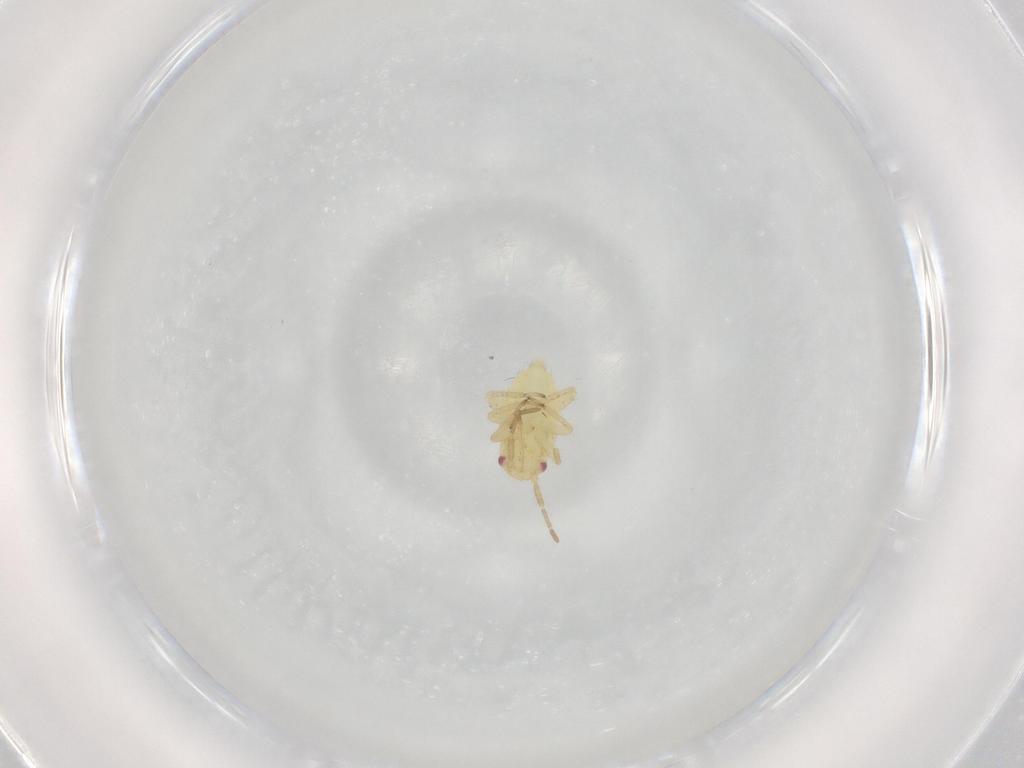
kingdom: Animalia
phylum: Arthropoda
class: Insecta
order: Hemiptera
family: Miridae
